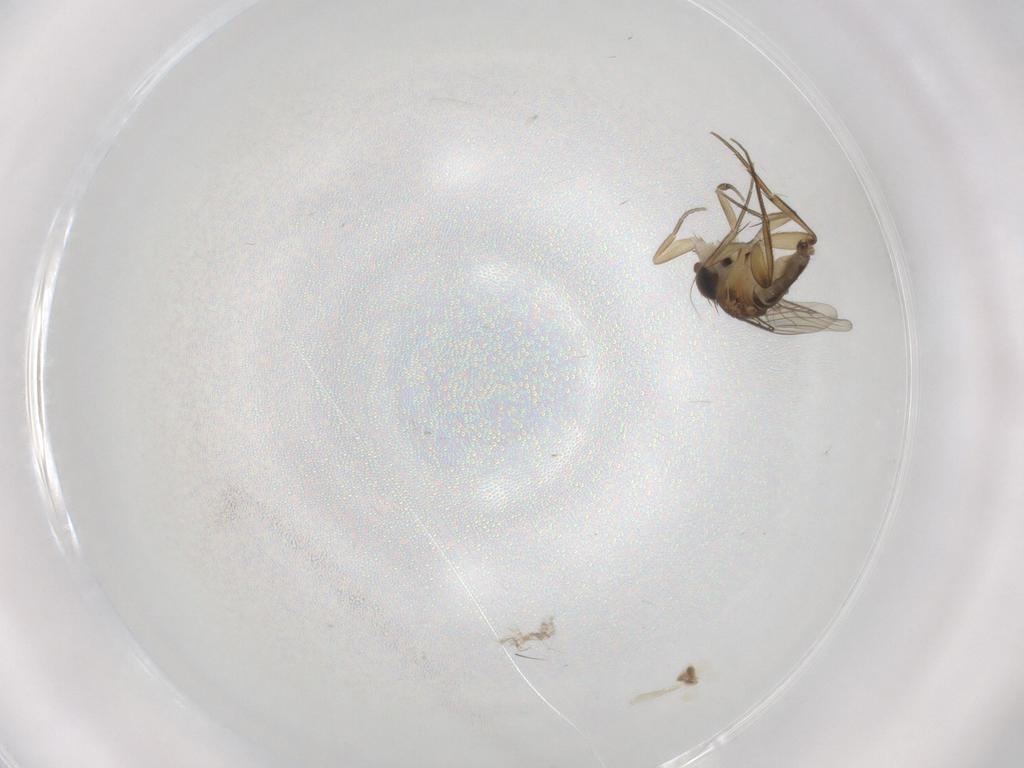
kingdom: Animalia
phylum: Arthropoda
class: Insecta
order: Diptera
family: Phoridae
